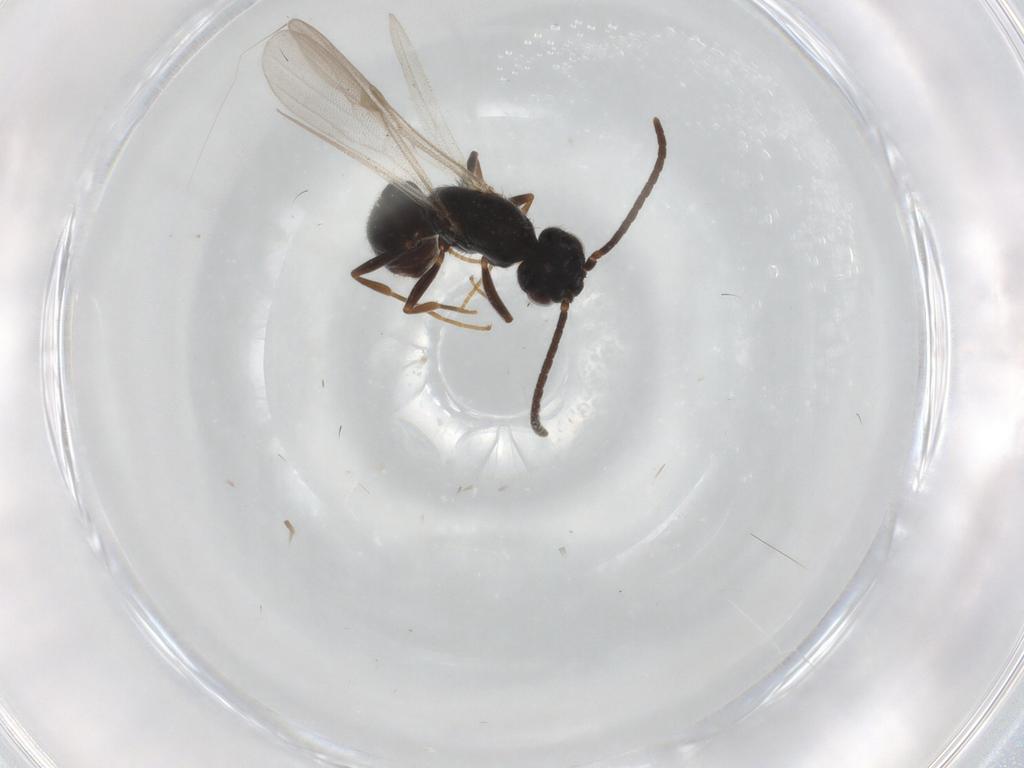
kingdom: Animalia
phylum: Arthropoda
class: Insecta
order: Hymenoptera
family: Formicidae
